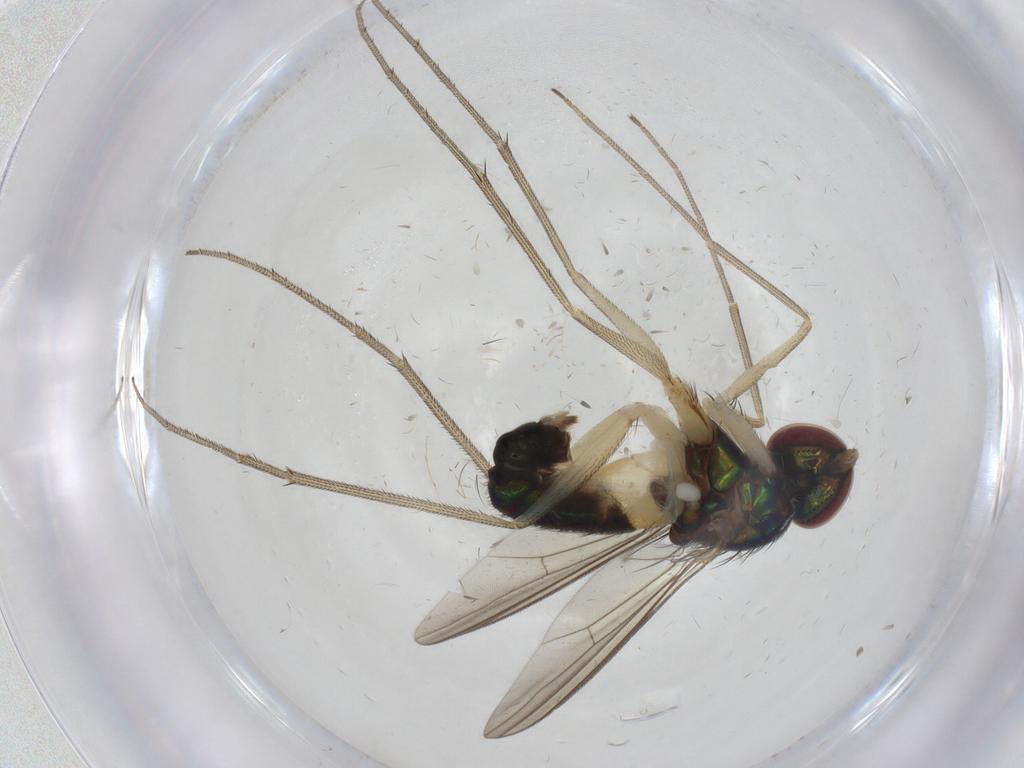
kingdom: Animalia
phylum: Arthropoda
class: Insecta
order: Diptera
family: Dolichopodidae
